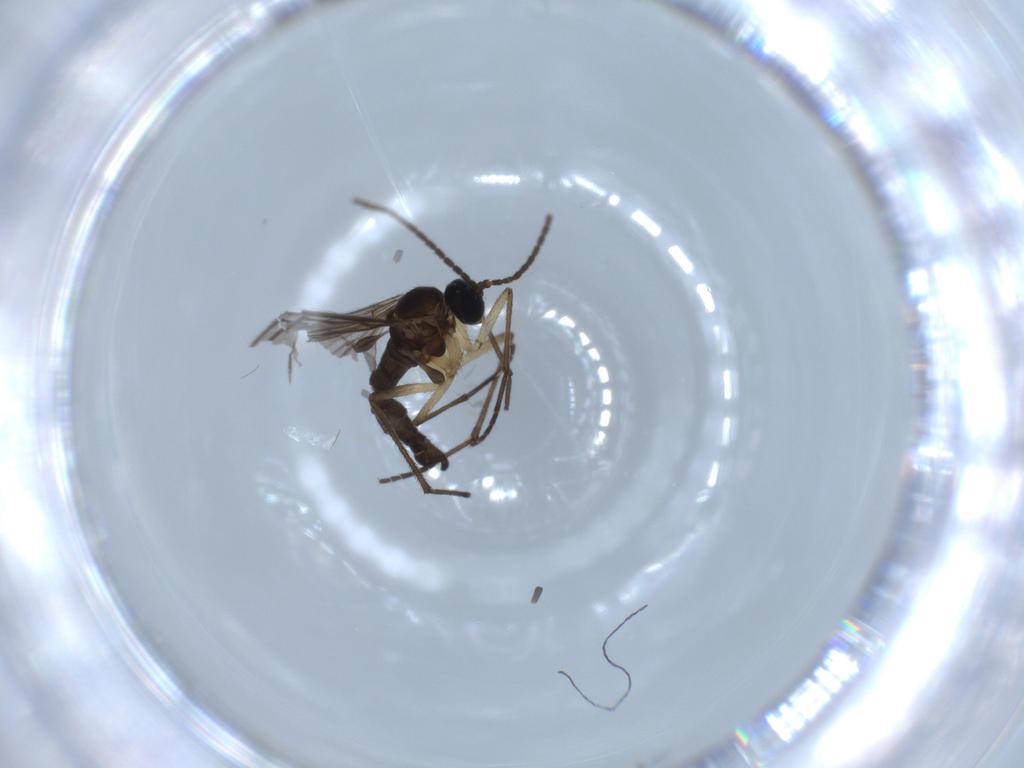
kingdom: Animalia
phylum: Arthropoda
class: Insecta
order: Diptera
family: Sciaridae
